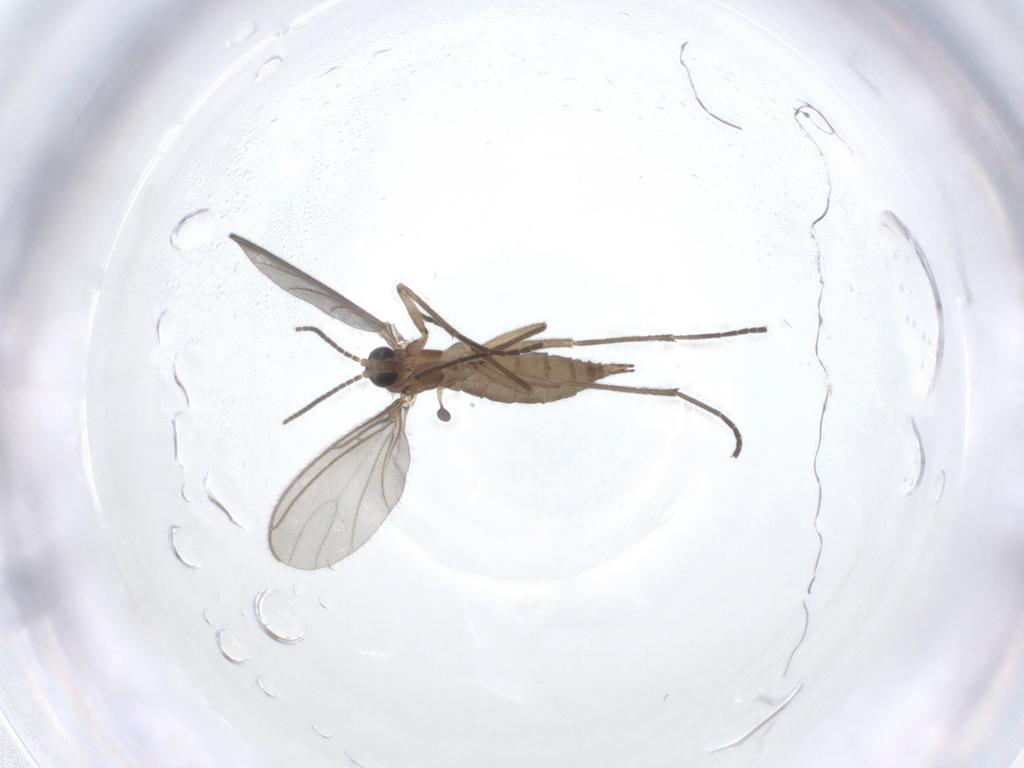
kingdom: Animalia
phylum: Arthropoda
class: Insecta
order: Diptera
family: Sciaridae
